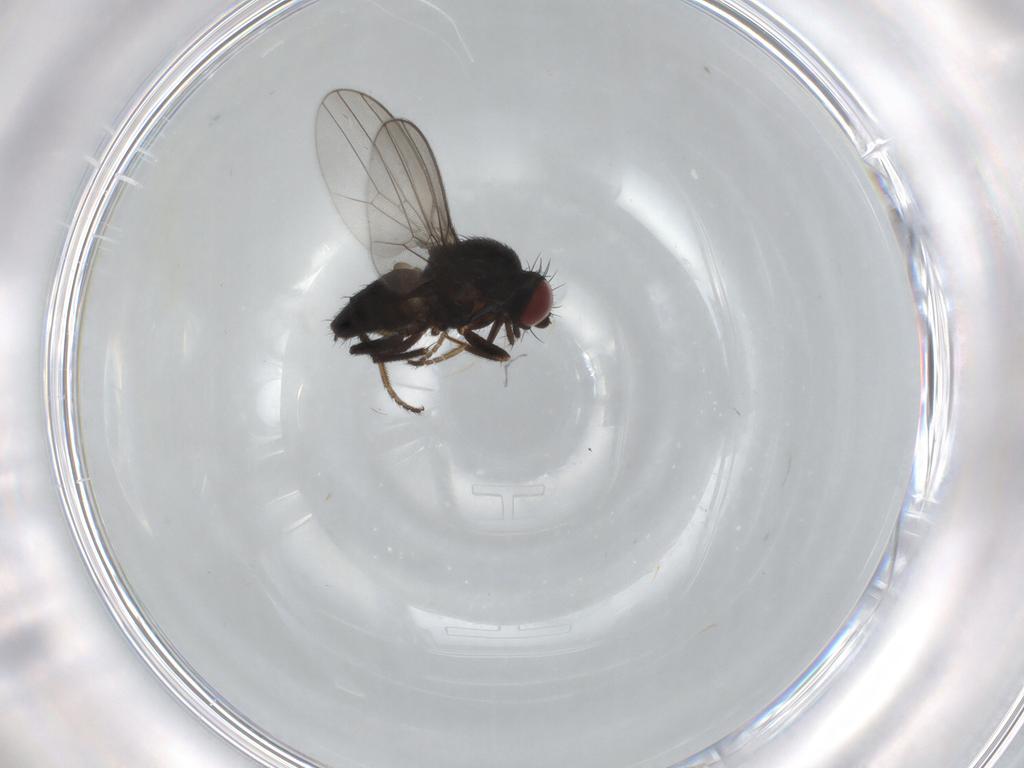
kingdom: Animalia
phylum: Arthropoda
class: Insecta
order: Diptera
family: Milichiidae
